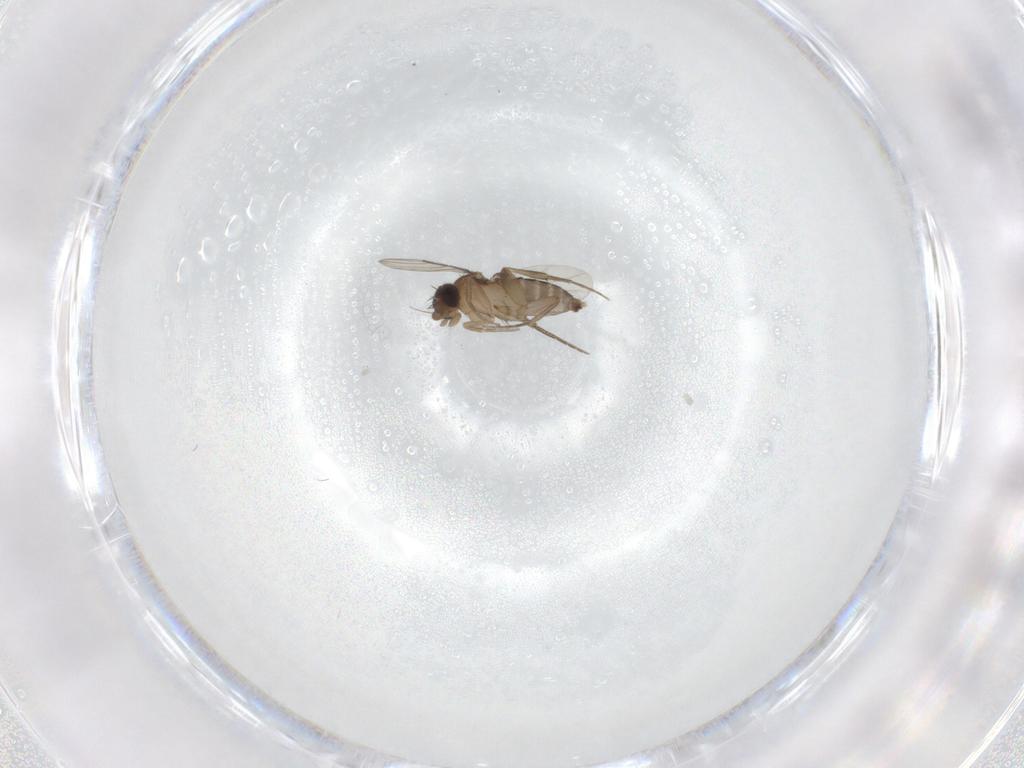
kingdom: Animalia
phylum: Arthropoda
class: Insecta
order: Diptera
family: Phoridae
